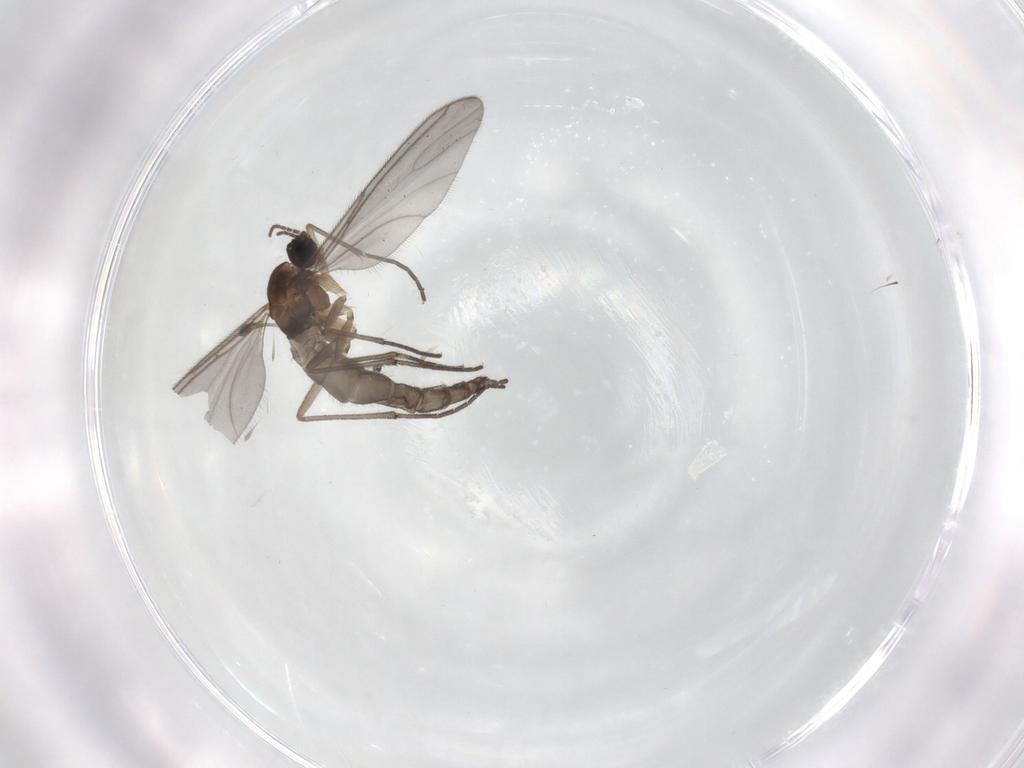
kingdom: Animalia
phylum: Arthropoda
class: Insecta
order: Diptera
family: Sciaridae
